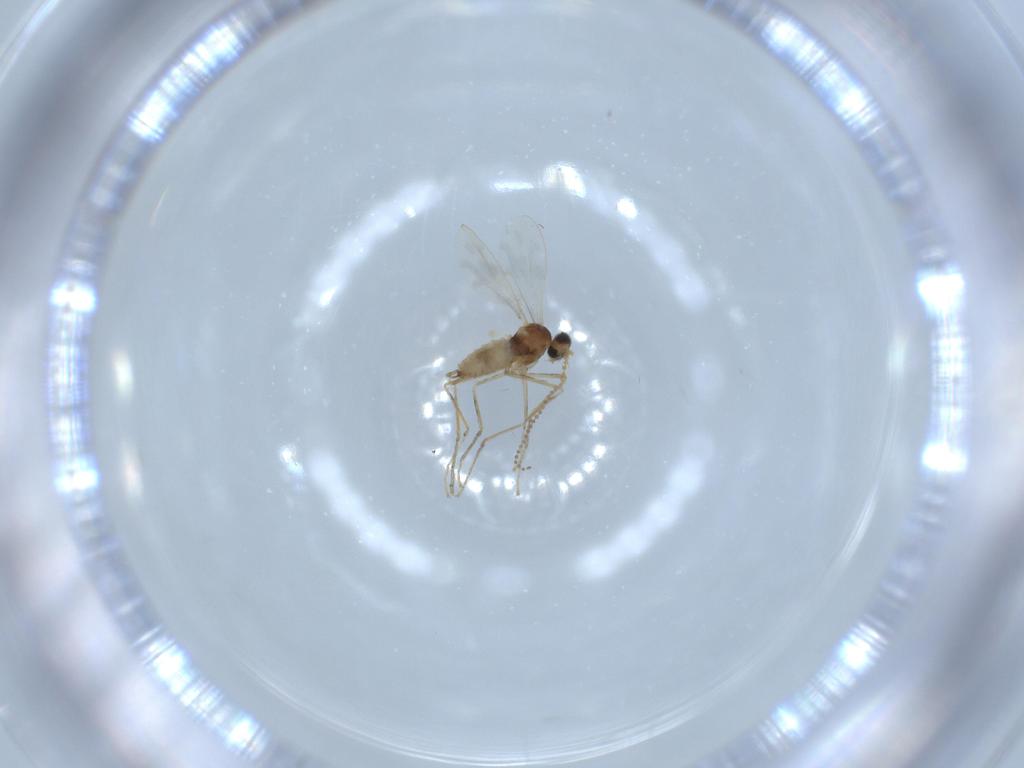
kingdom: Animalia
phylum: Arthropoda
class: Insecta
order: Diptera
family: Cecidomyiidae
